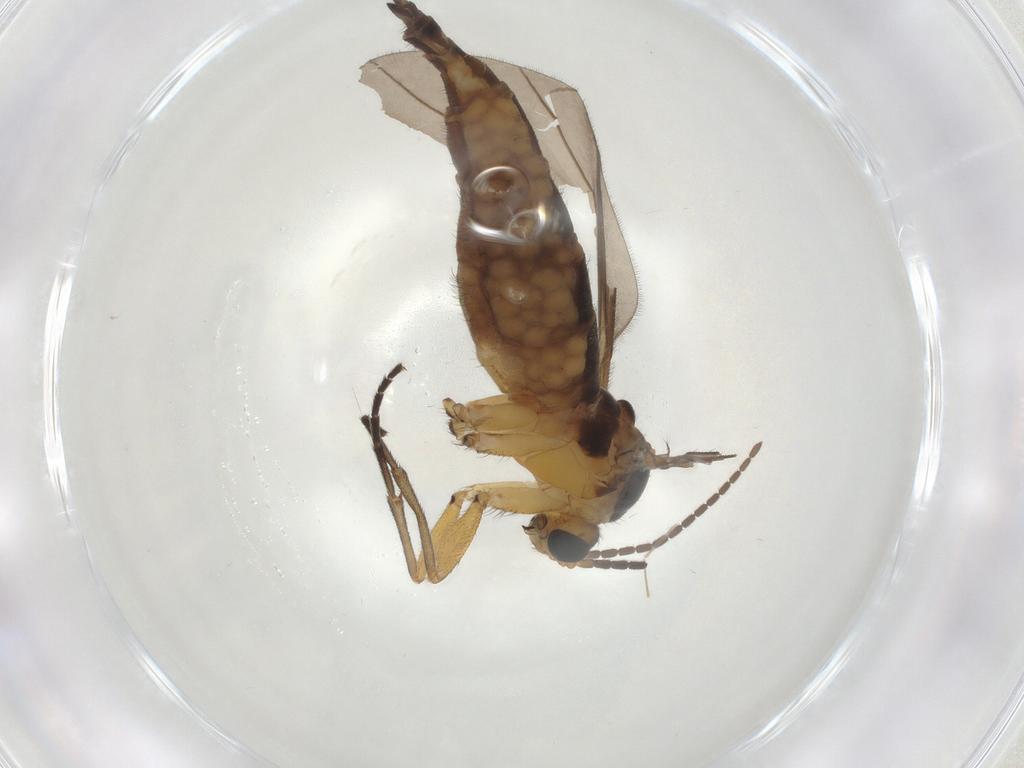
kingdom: Animalia
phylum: Arthropoda
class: Insecta
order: Diptera
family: Sciaridae
